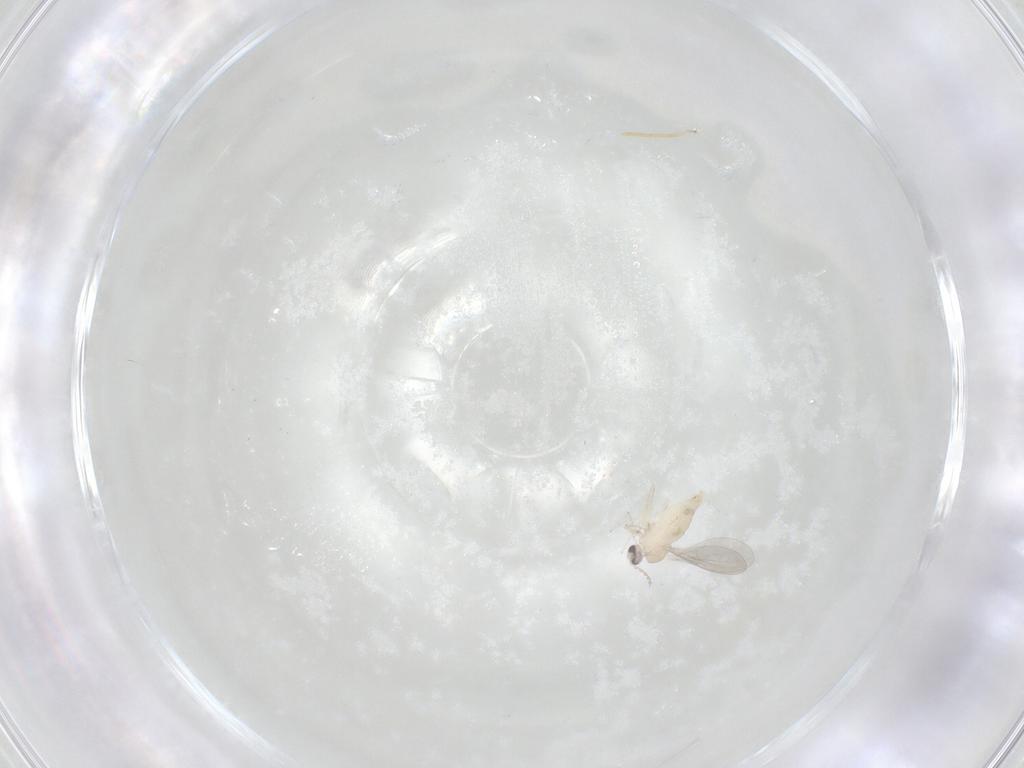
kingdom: Animalia
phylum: Arthropoda
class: Insecta
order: Diptera
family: Cecidomyiidae
